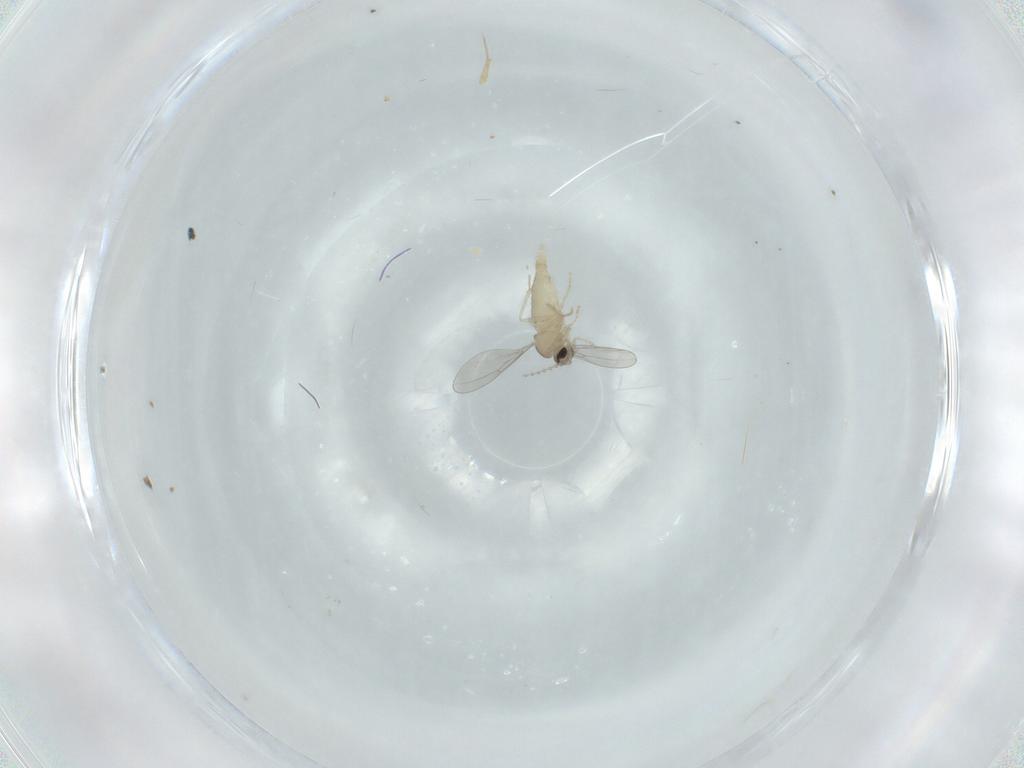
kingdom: Animalia
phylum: Arthropoda
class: Insecta
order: Diptera
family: Cecidomyiidae
